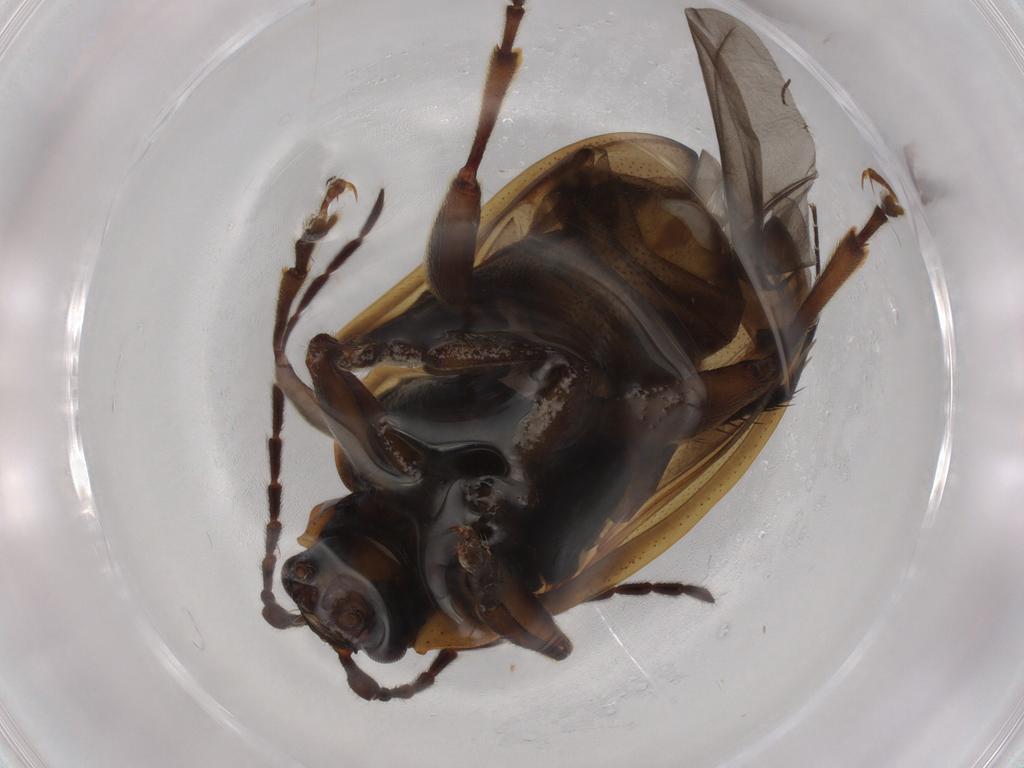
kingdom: Animalia
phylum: Arthropoda
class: Insecta
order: Coleoptera
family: Chrysomelidae
